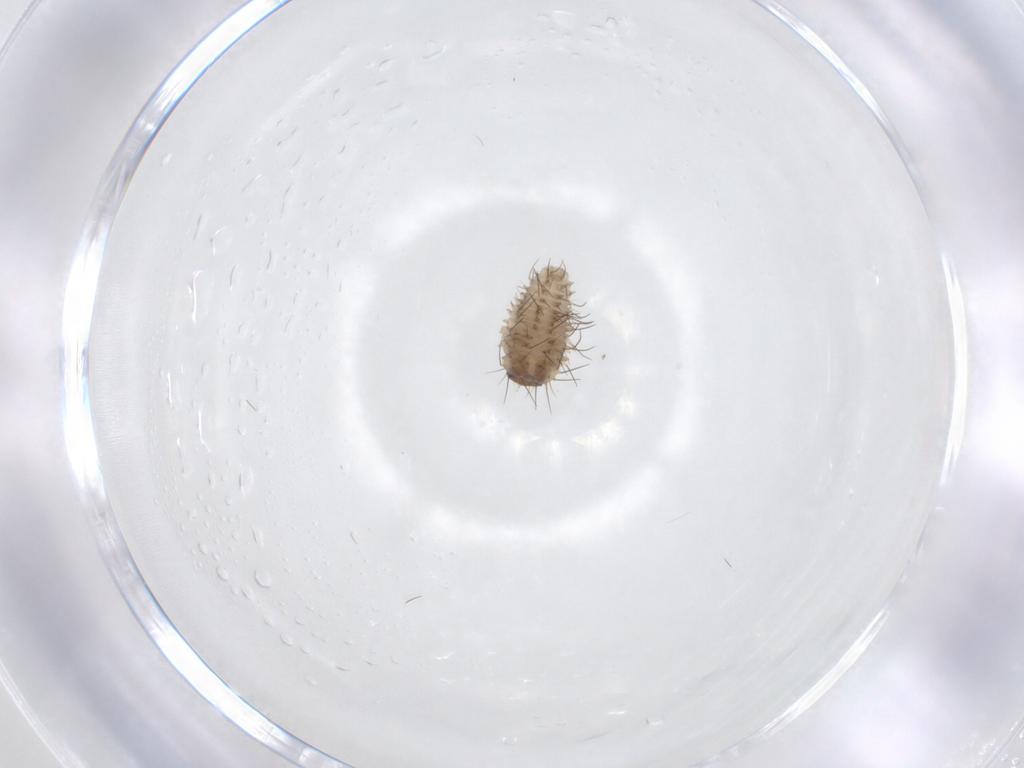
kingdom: Animalia
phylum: Arthropoda
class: Insecta
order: Coleoptera
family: Coccinellidae
